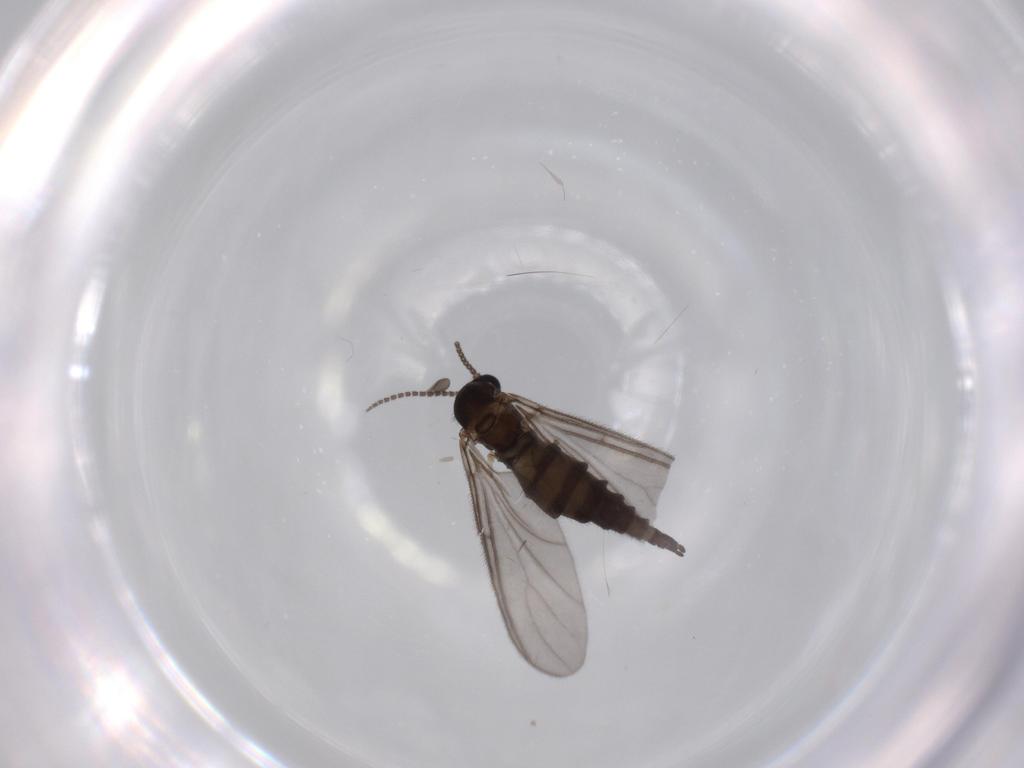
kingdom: Animalia
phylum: Arthropoda
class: Insecta
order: Diptera
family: Sciaridae
